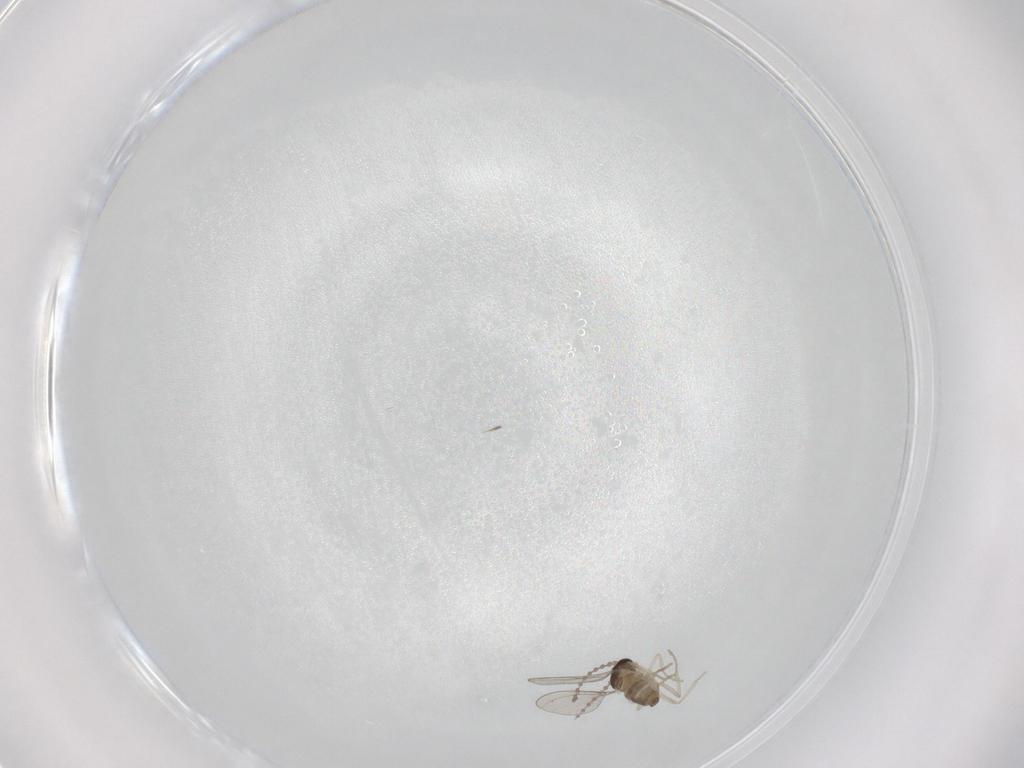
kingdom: Animalia
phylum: Arthropoda
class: Insecta
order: Diptera
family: Cecidomyiidae
